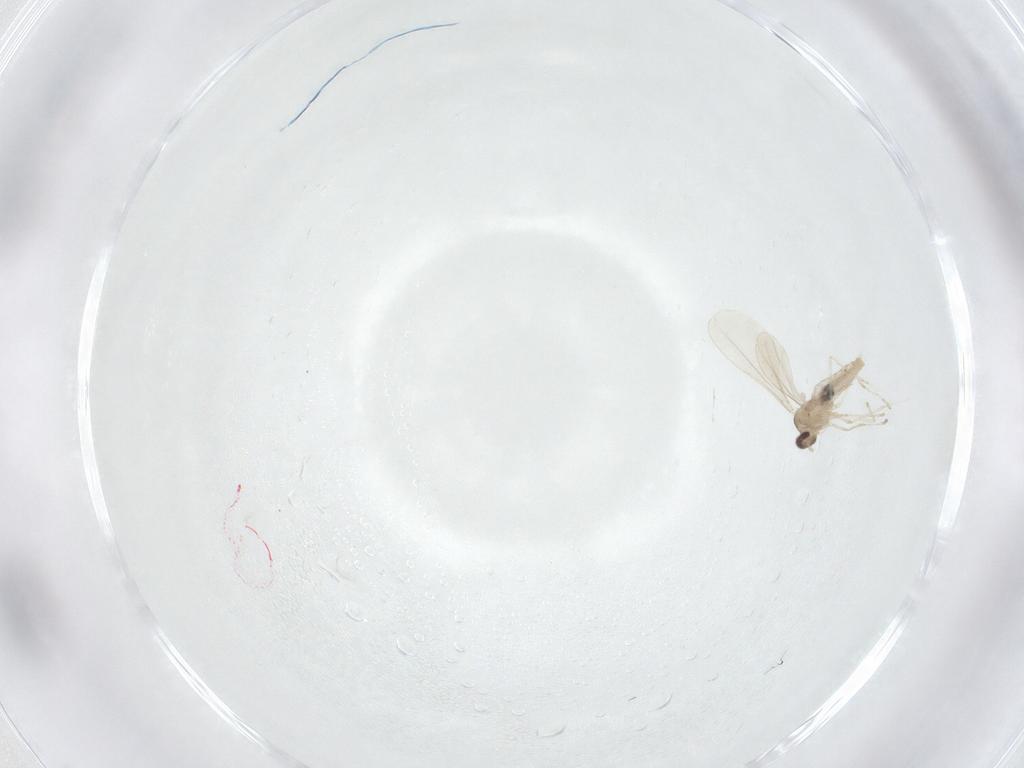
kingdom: Animalia
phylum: Arthropoda
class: Insecta
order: Diptera
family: Cecidomyiidae
